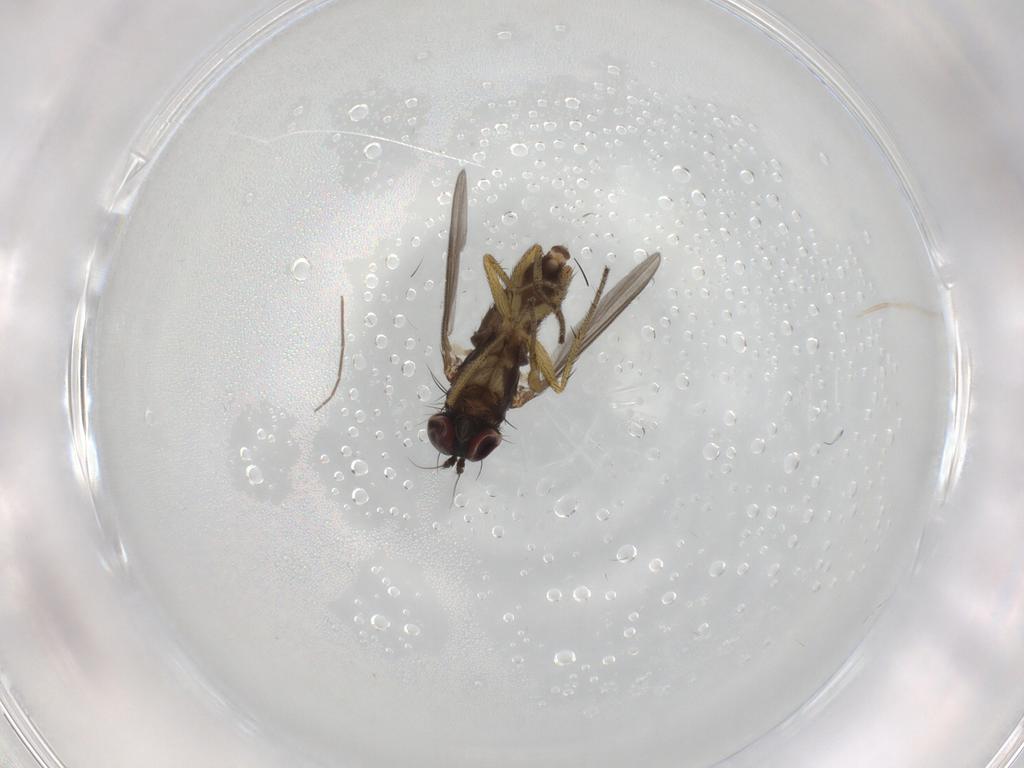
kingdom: Animalia
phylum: Arthropoda
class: Insecta
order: Diptera
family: Chironomidae
